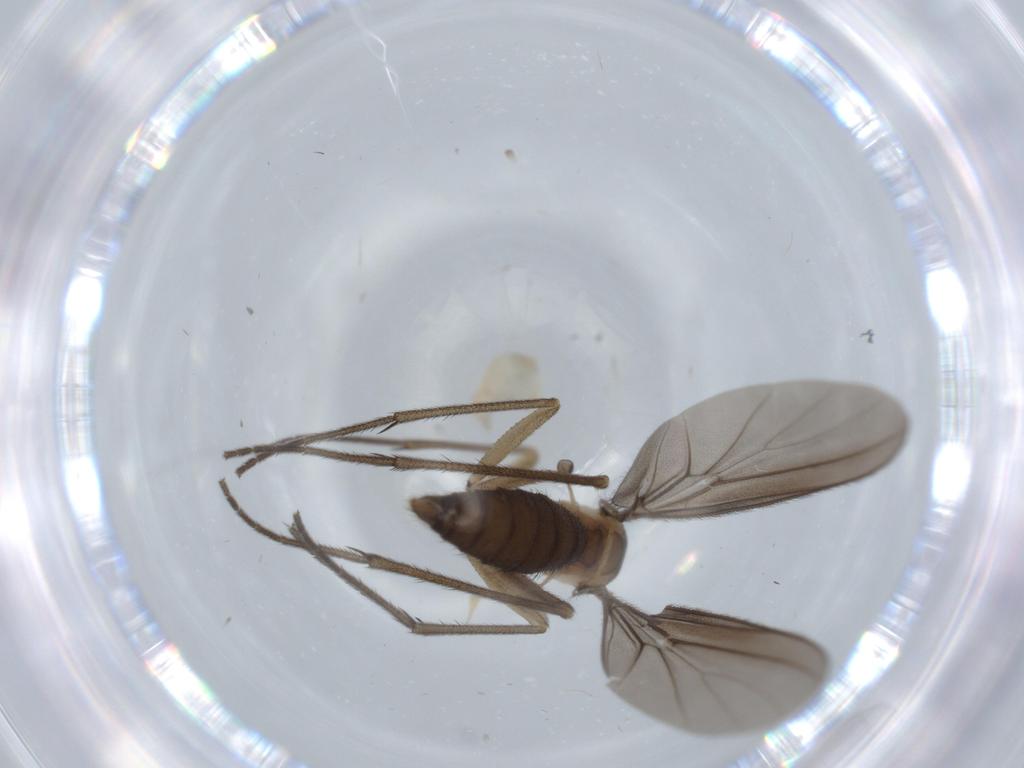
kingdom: Animalia
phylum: Arthropoda
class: Insecta
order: Diptera
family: Diadocidiidae
